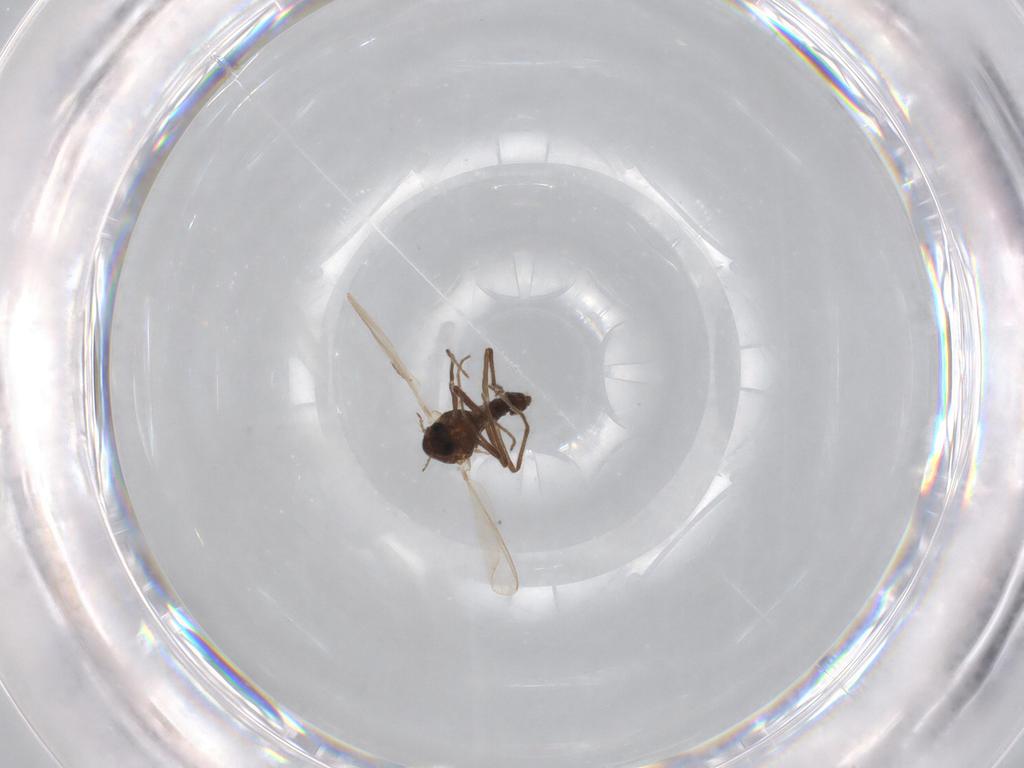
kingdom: Animalia
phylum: Arthropoda
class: Insecta
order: Diptera
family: Chironomidae
